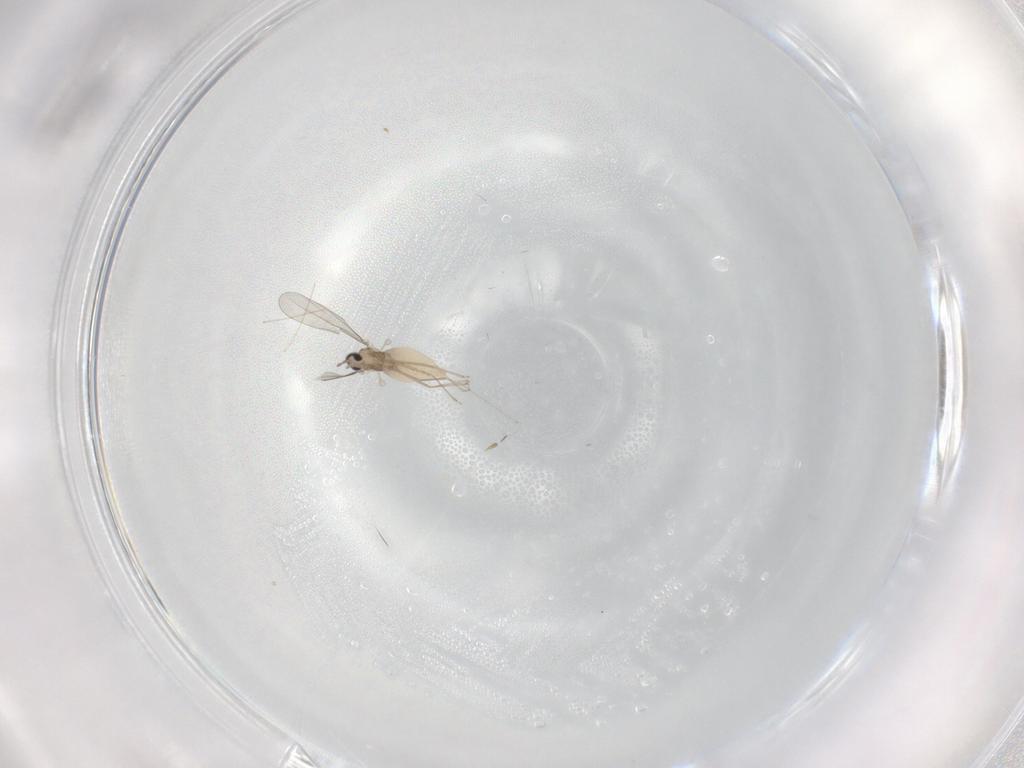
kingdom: Animalia
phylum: Arthropoda
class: Insecta
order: Diptera
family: Cecidomyiidae
